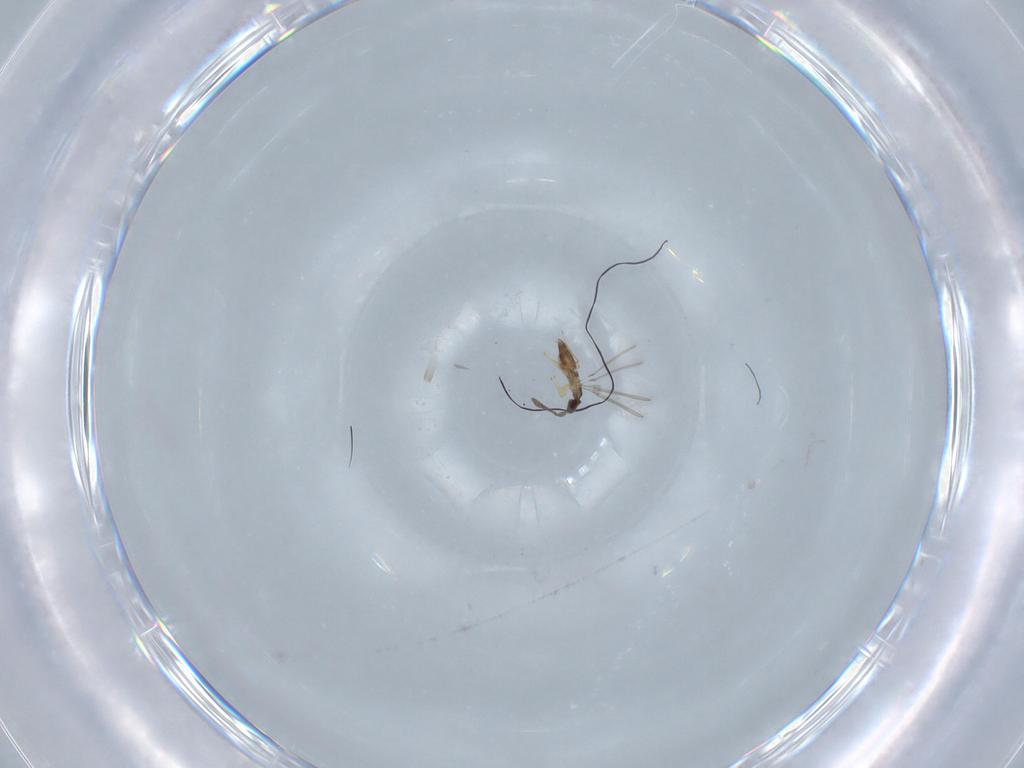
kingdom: Animalia
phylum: Arthropoda
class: Insecta
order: Hymenoptera
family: Mymaridae
